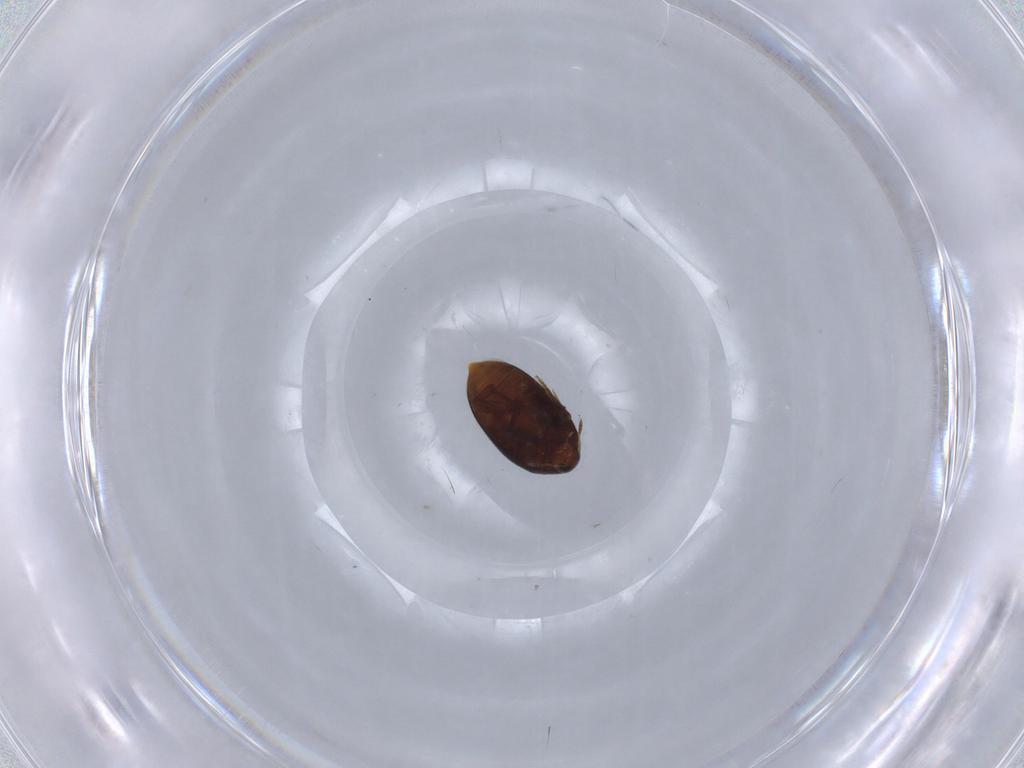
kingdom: Animalia
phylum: Arthropoda
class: Insecta
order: Coleoptera
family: Melandryidae
